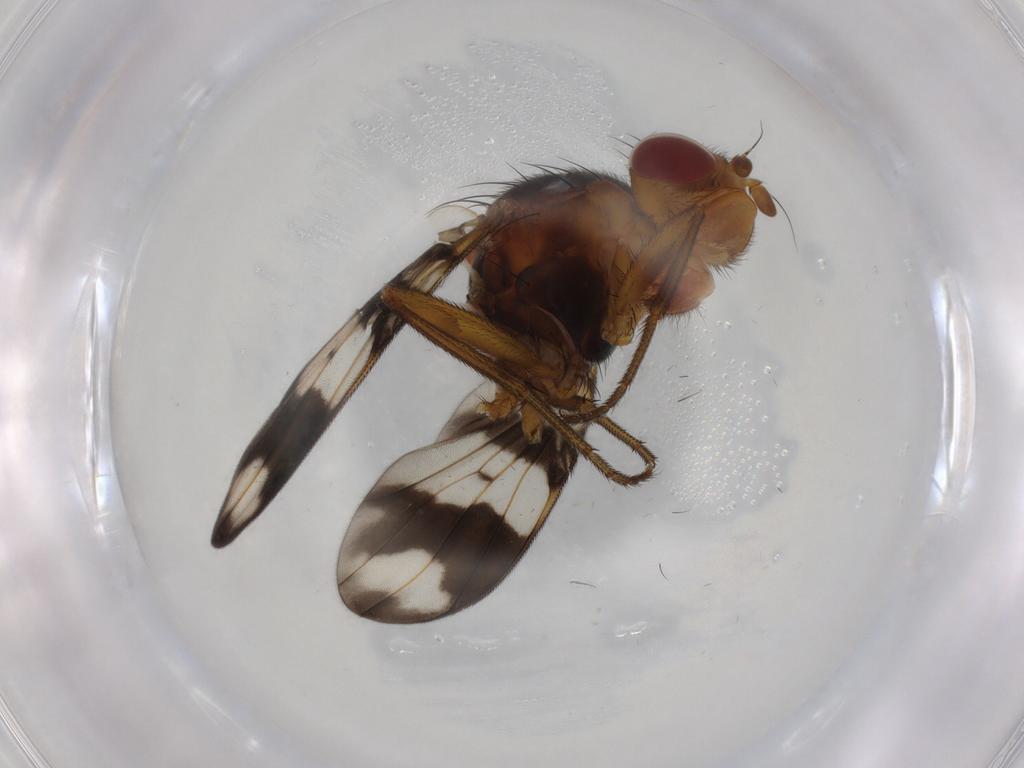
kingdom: Animalia
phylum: Arthropoda
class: Insecta
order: Diptera
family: Richardiidae
